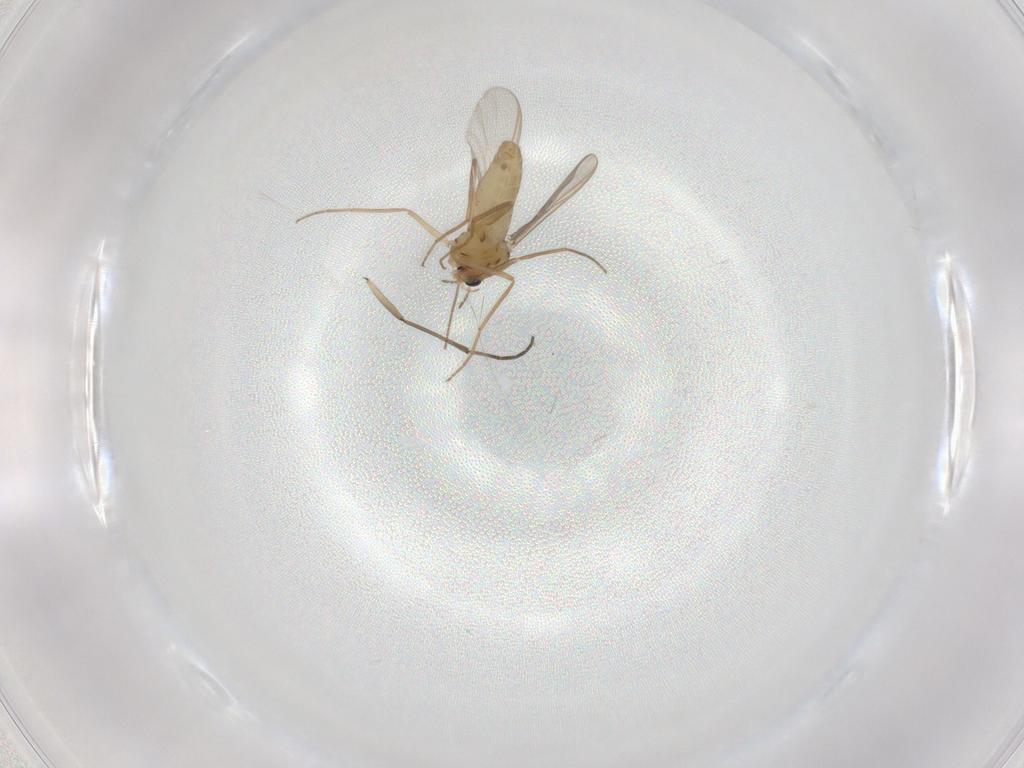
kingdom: Animalia
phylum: Arthropoda
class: Insecta
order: Diptera
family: Chironomidae
